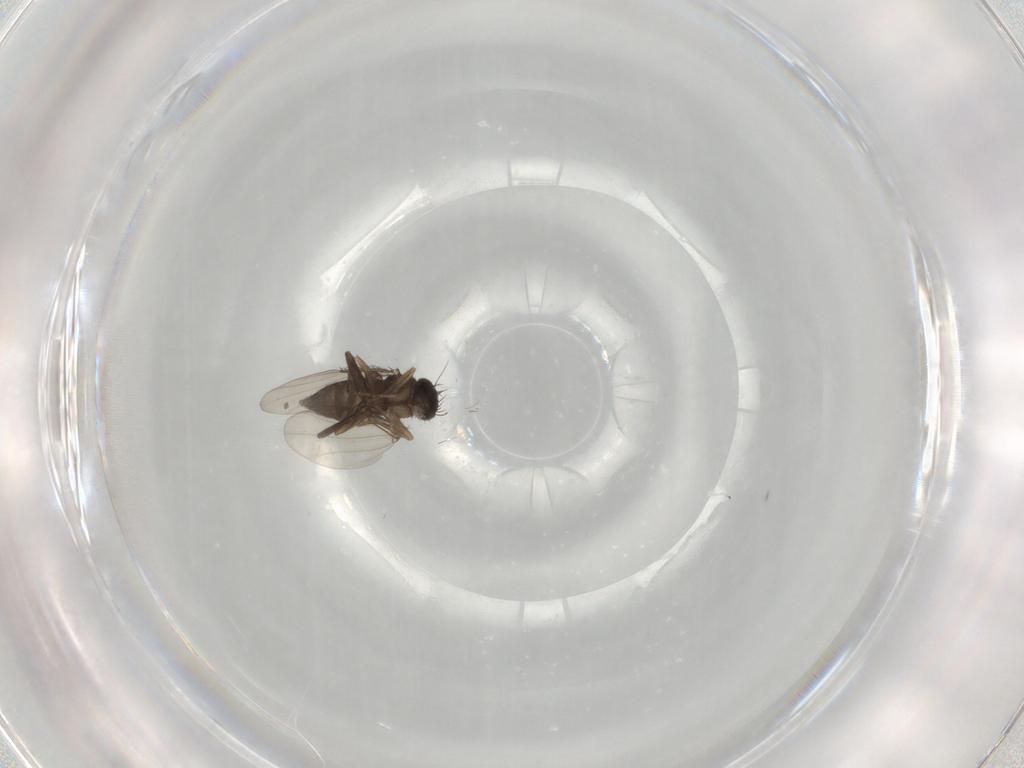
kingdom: Animalia
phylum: Arthropoda
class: Insecta
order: Diptera
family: Phoridae
